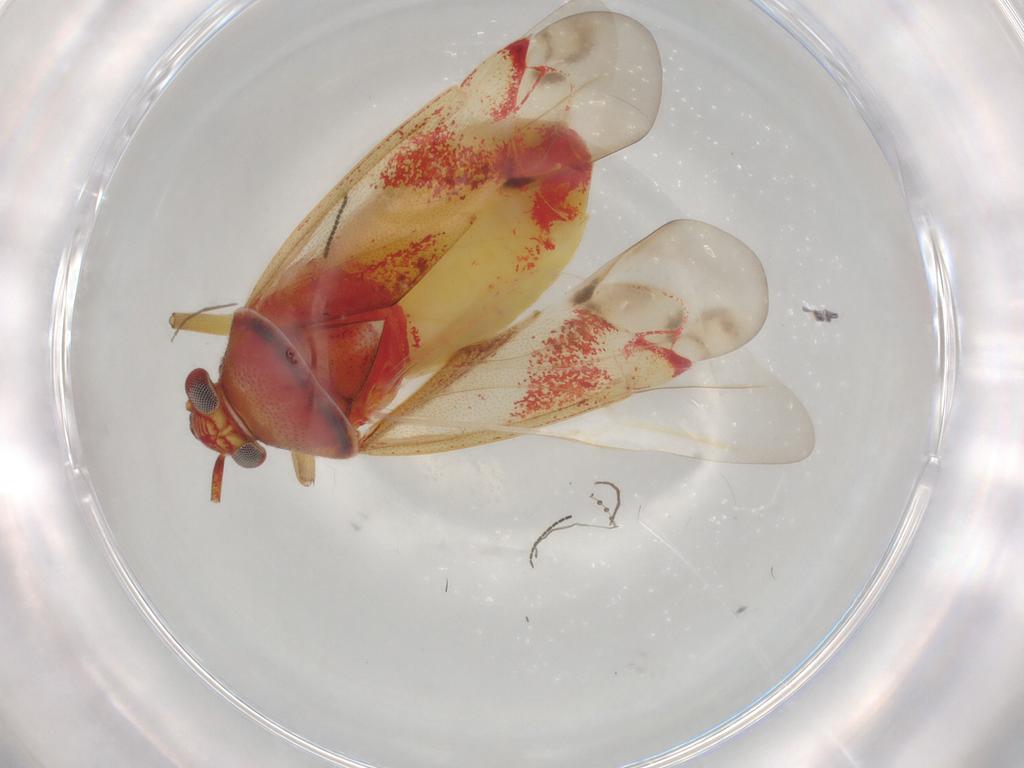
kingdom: Animalia
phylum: Arthropoda
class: Insecta
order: Hemiptera
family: Miridae
